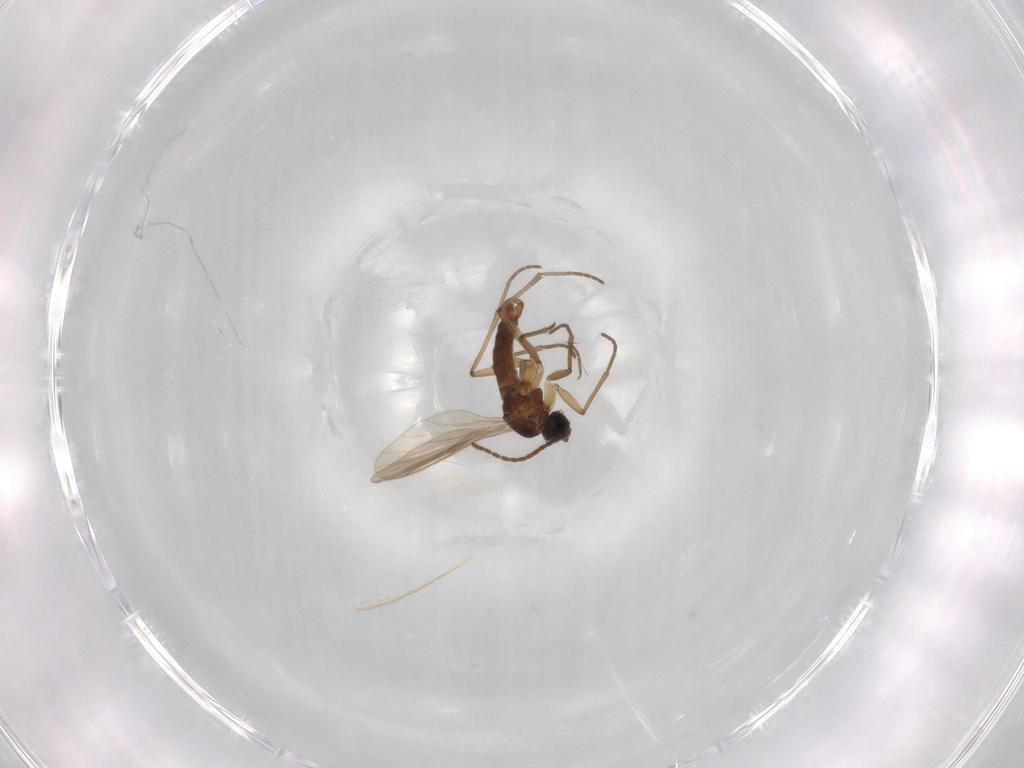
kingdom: Animalia
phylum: Arthropoda
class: Insecta
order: Diptera
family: Sciaridae
